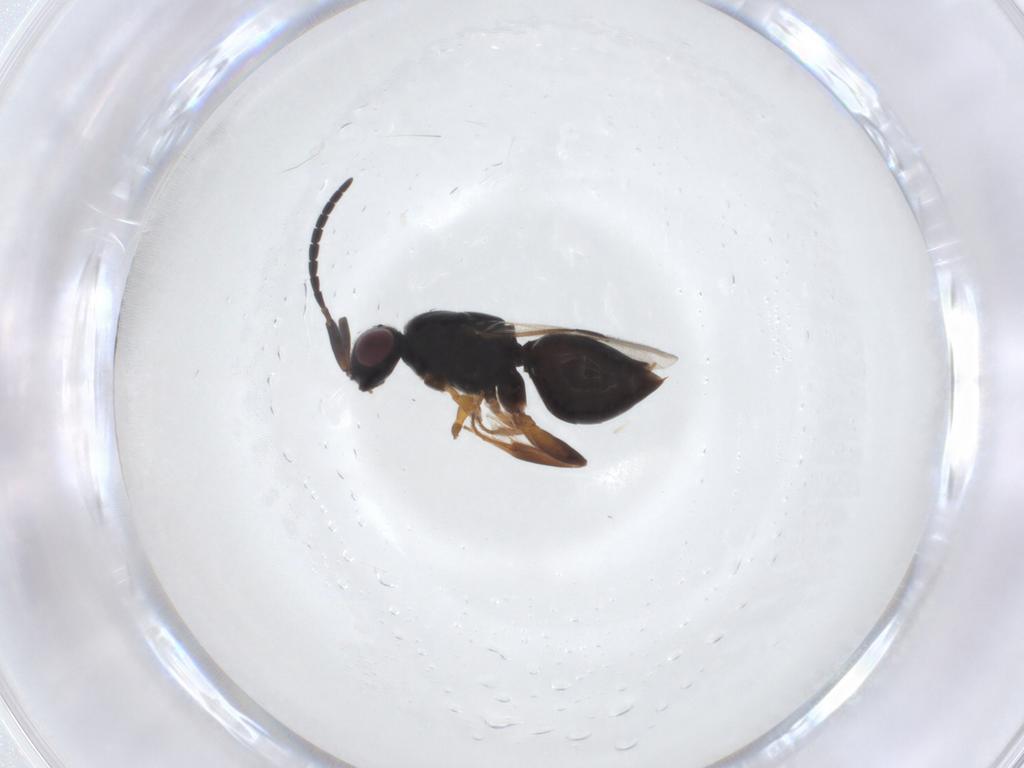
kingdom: Animalia
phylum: Arthropoda
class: Insecta
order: Hymenoptera
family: Megaspilidae
